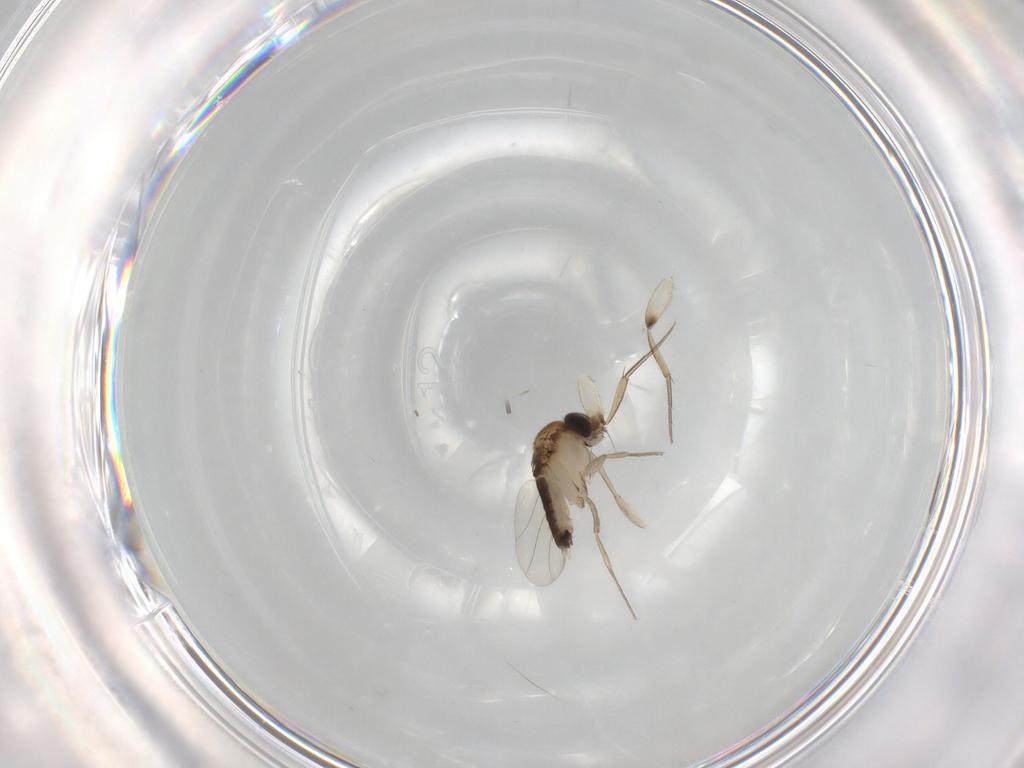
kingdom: Animalia
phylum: Arthropoda
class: Insecta
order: Diptera
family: Phoridae
